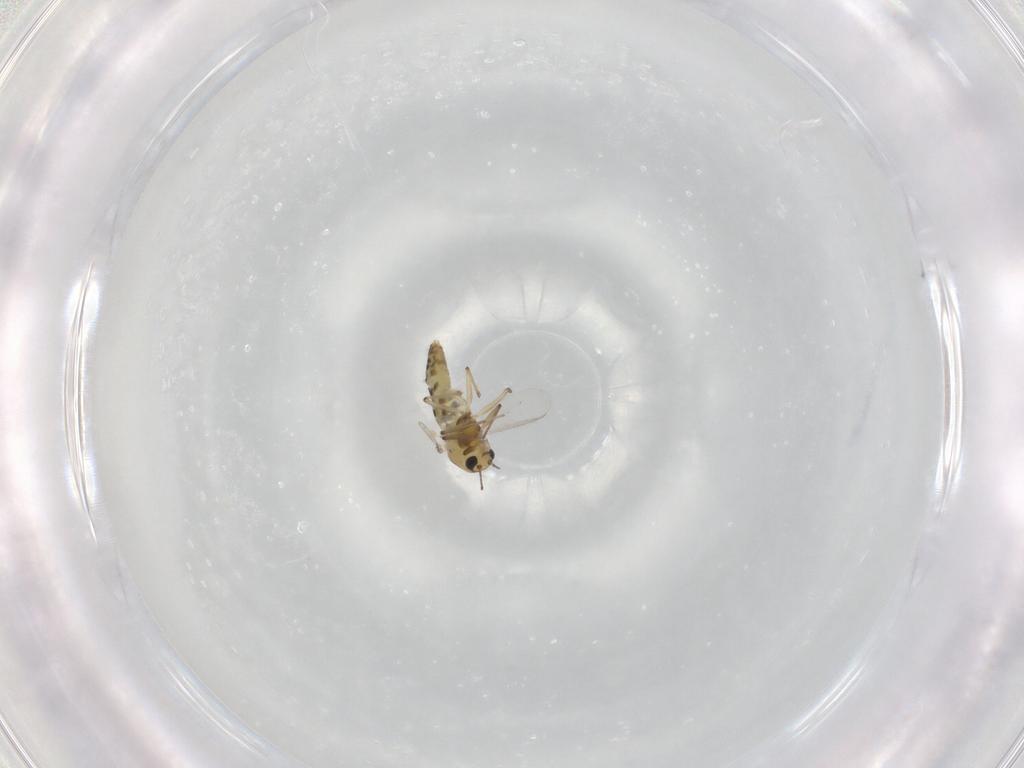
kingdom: Animalia
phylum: Arthropoda
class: Insecta
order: Diptera
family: Chironomidae
